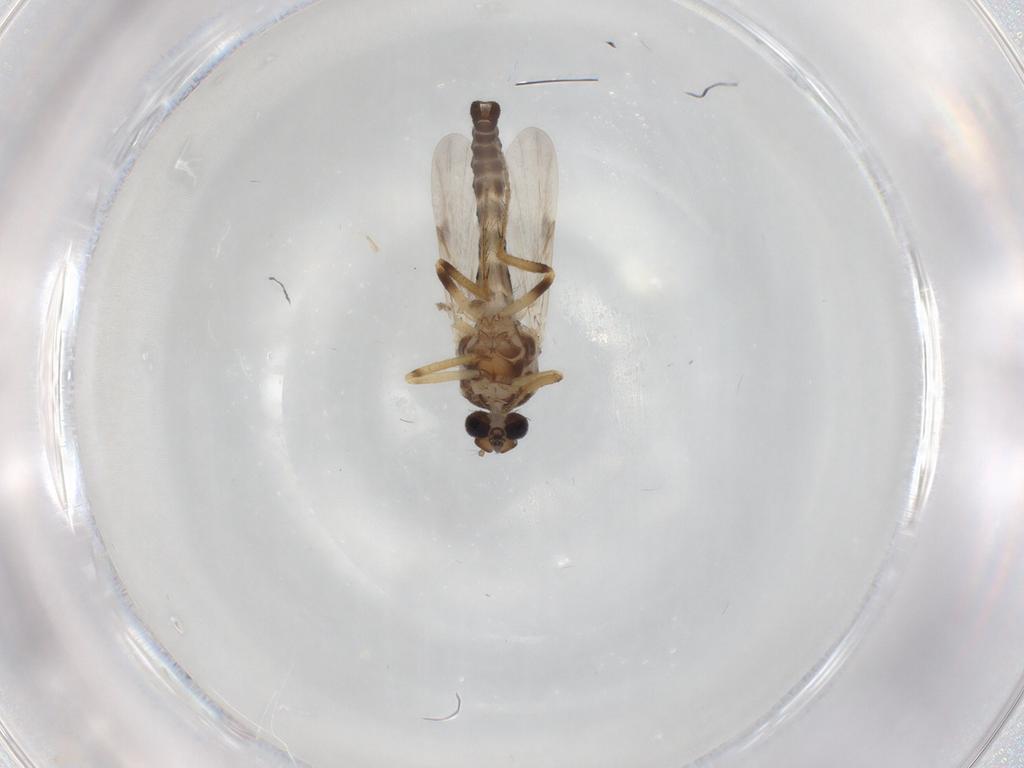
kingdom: Animalia
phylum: Arthropoda
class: Insecta
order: Diptera
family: Ceratopogonidae
